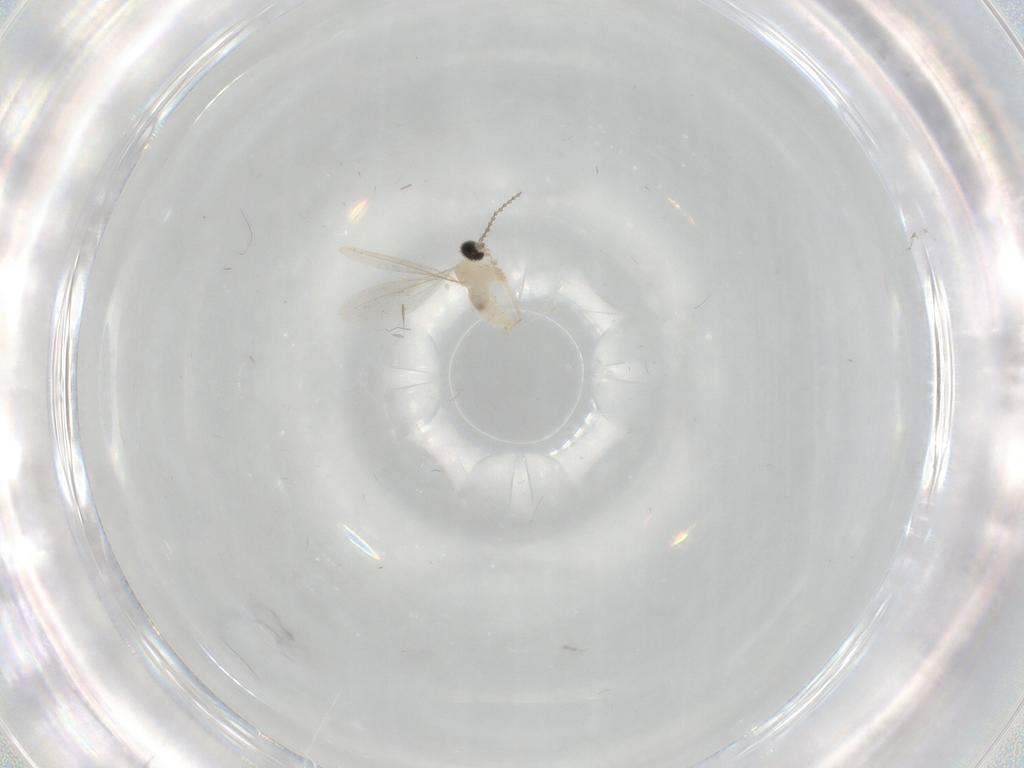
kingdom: Animalia
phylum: Arthropoda
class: Insecta
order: Diptera
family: Cecidomyiidae
